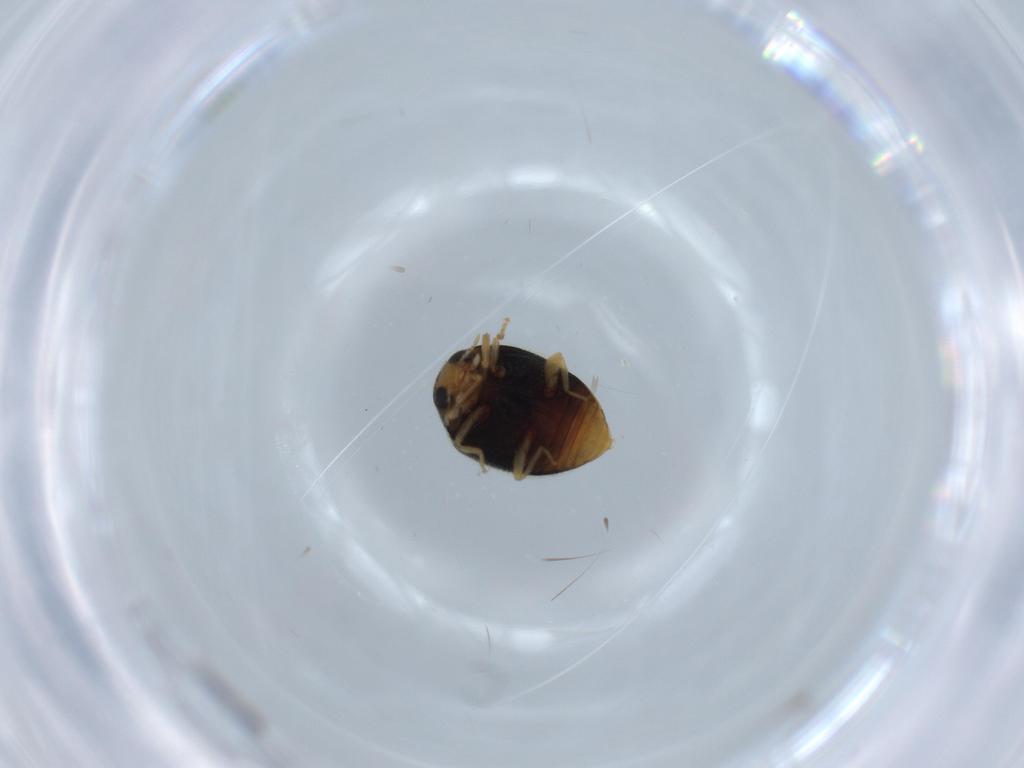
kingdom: Animalia
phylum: Arthropoda
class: Insecta
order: Coleoptera
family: Coccinellidae
